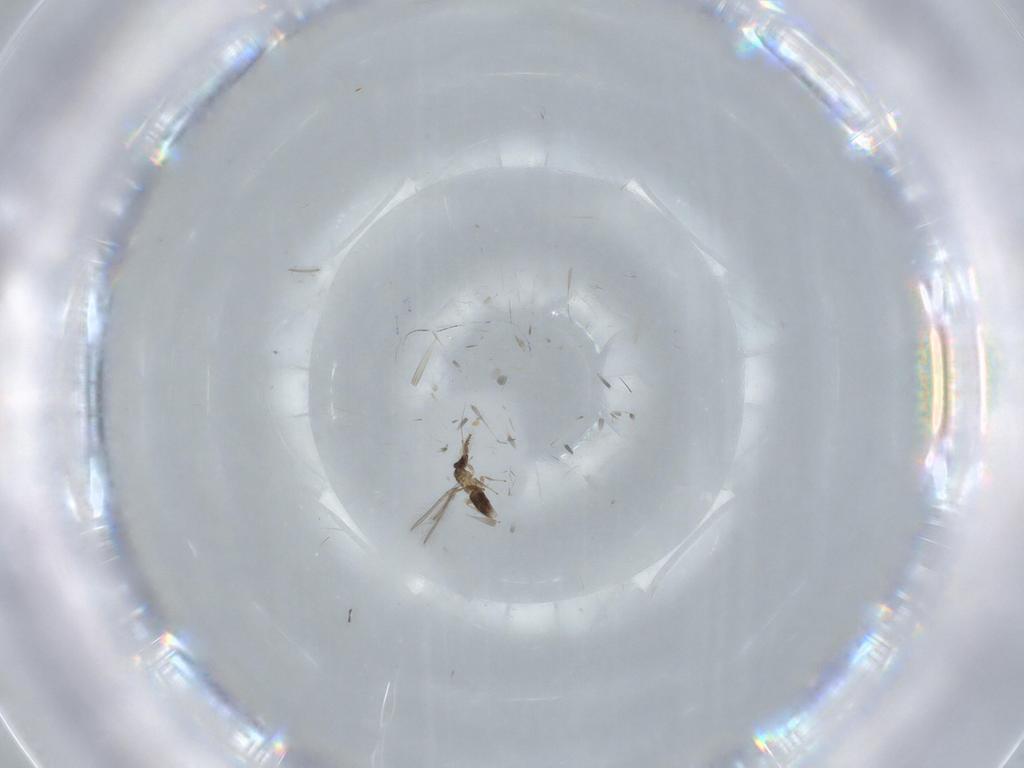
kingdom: Animalia
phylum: Arthropoda
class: Insecta
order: Hymenoptera
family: Mymaridae
